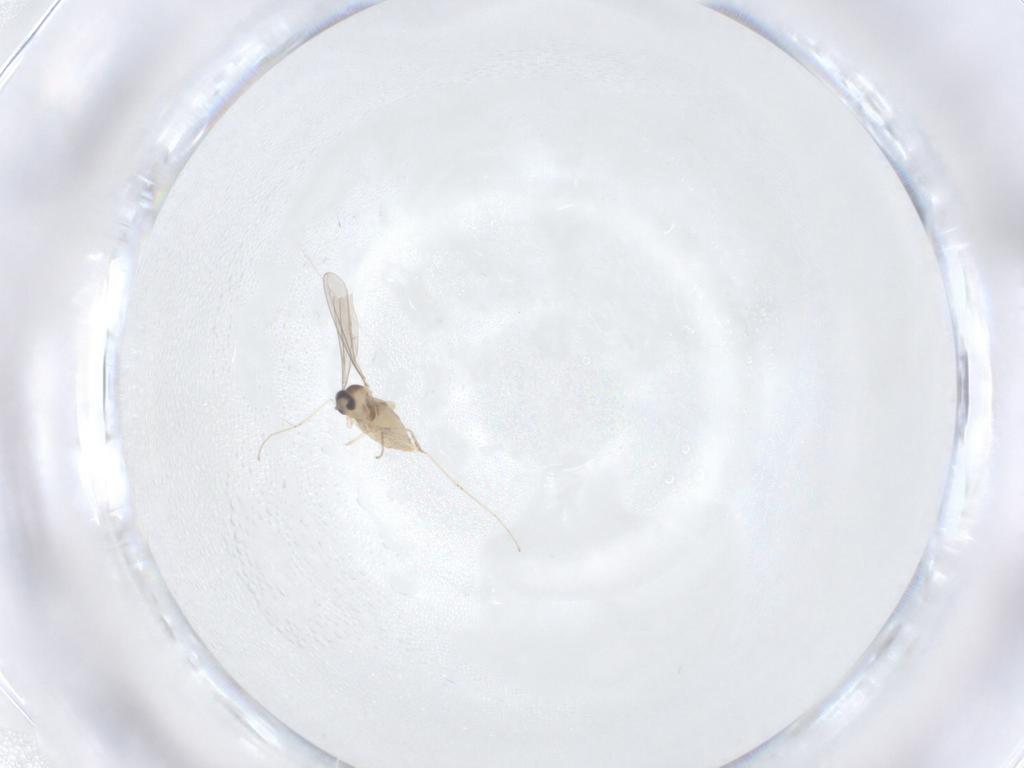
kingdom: Animalia
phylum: Arthropoda
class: Insecta
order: Diptera
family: Cecidomyiidae
